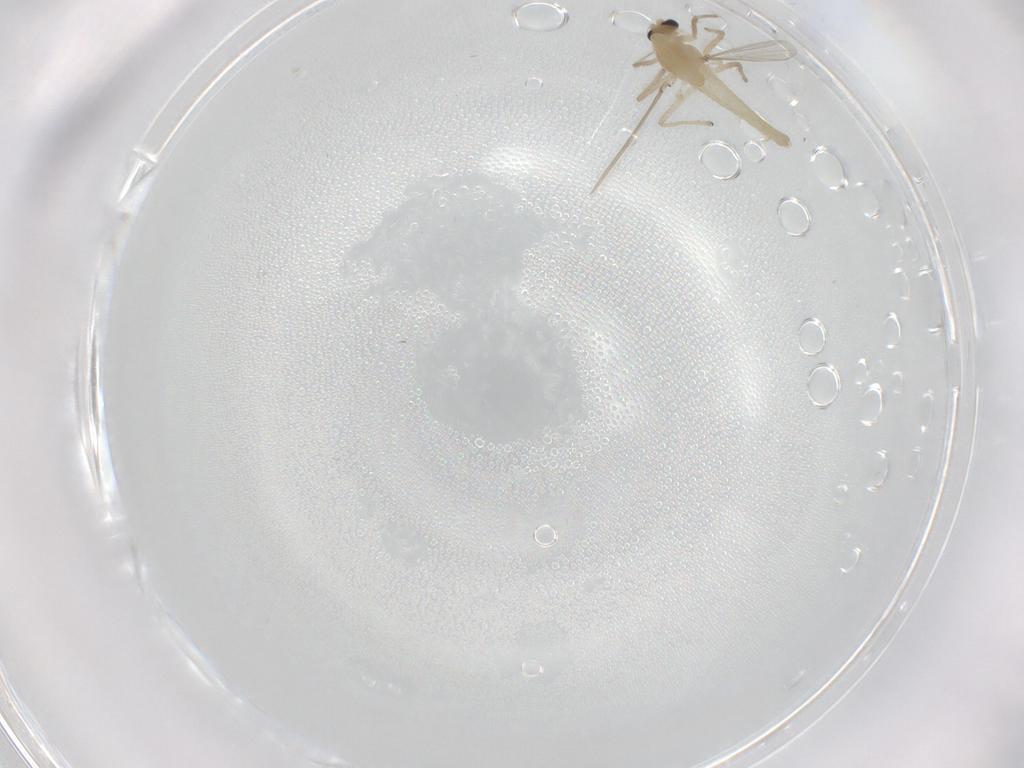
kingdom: Animalia
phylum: Arthropoda
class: Insecta
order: Diptera
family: Chironomidae
